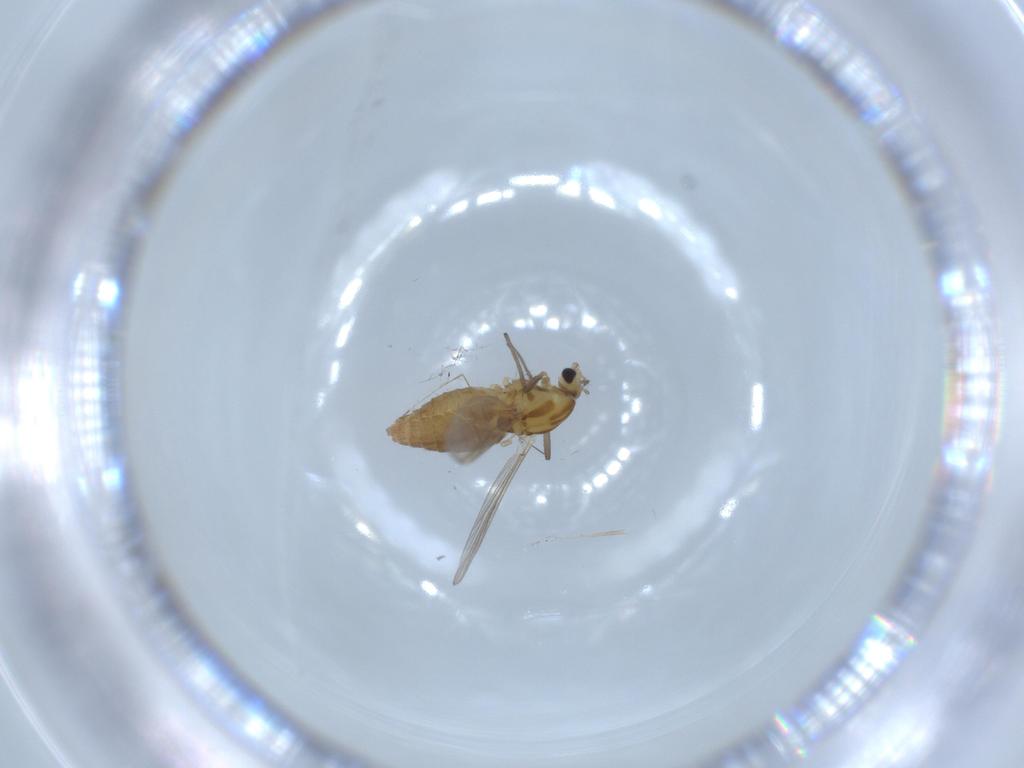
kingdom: Animalia
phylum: Arthropoda
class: Insecta
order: Diptera
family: Chironomidae
